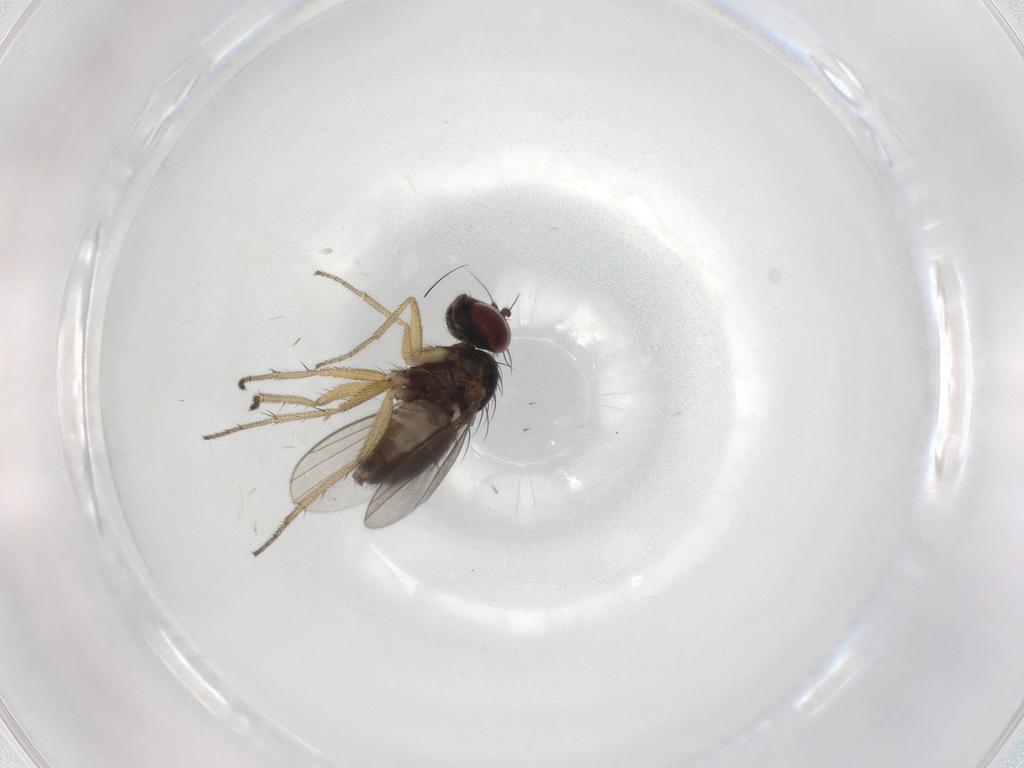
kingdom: Animalia
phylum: Arthropoda
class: Insecta
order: Diptera
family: Dolichopodidae
